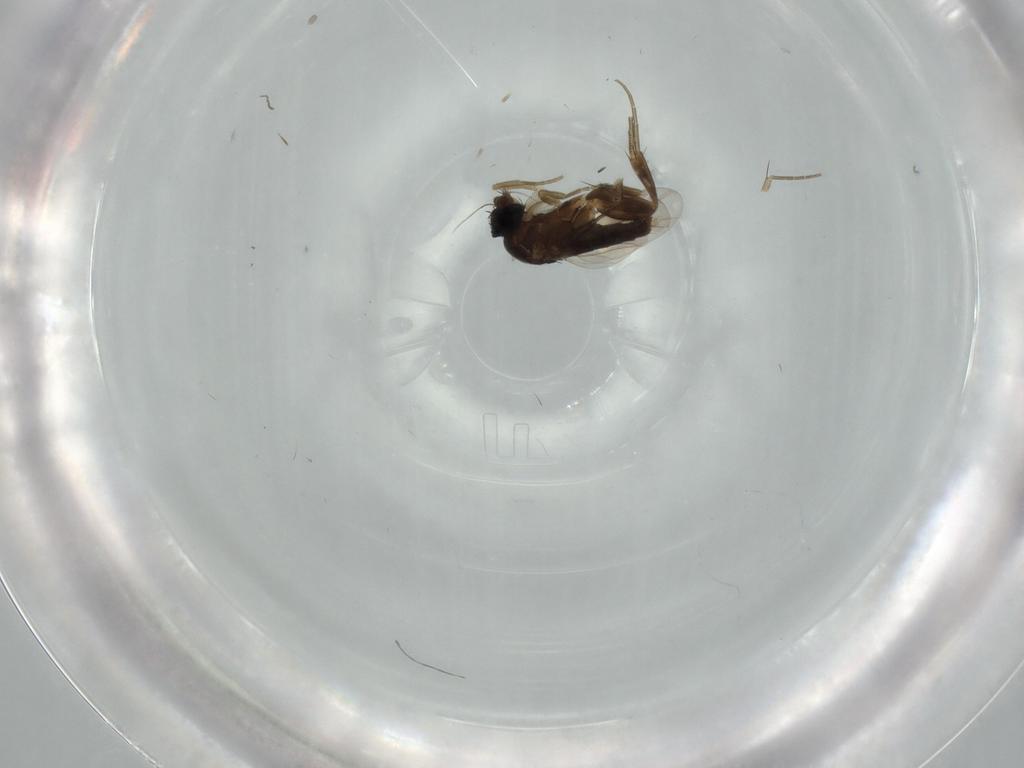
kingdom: Animalia
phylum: Arthropoda
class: Insecta
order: Diptera
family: Phoridae
